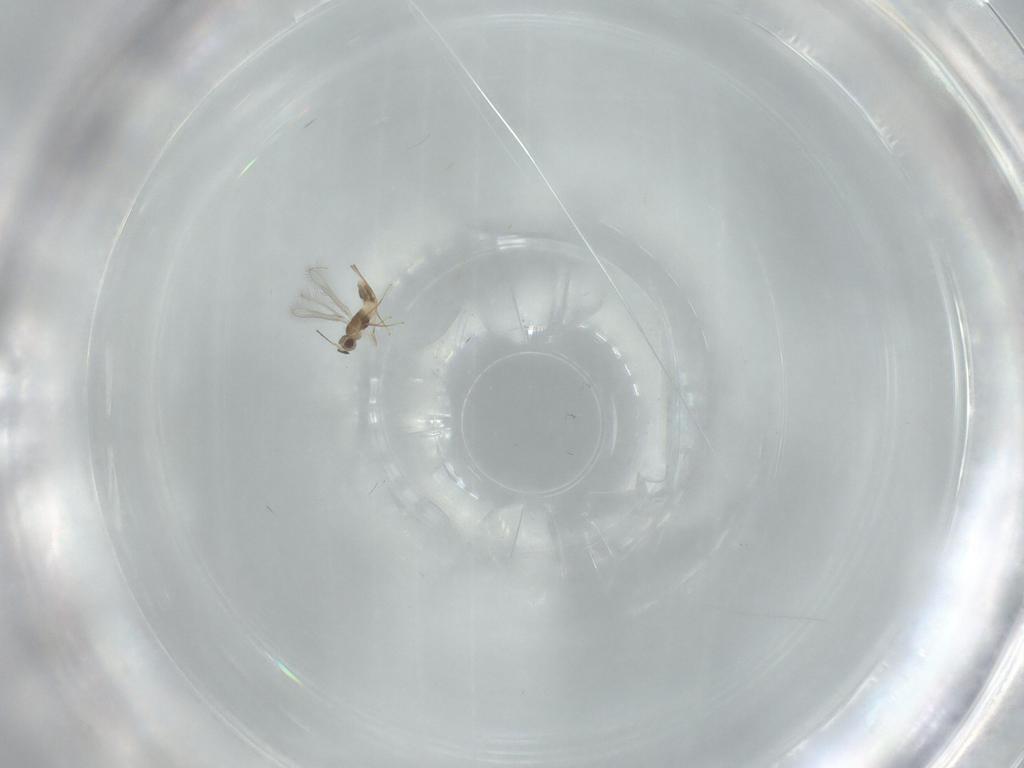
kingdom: Animalia
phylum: Arthropoda
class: Insecta
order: Hymenoptera
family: Mymaridae
